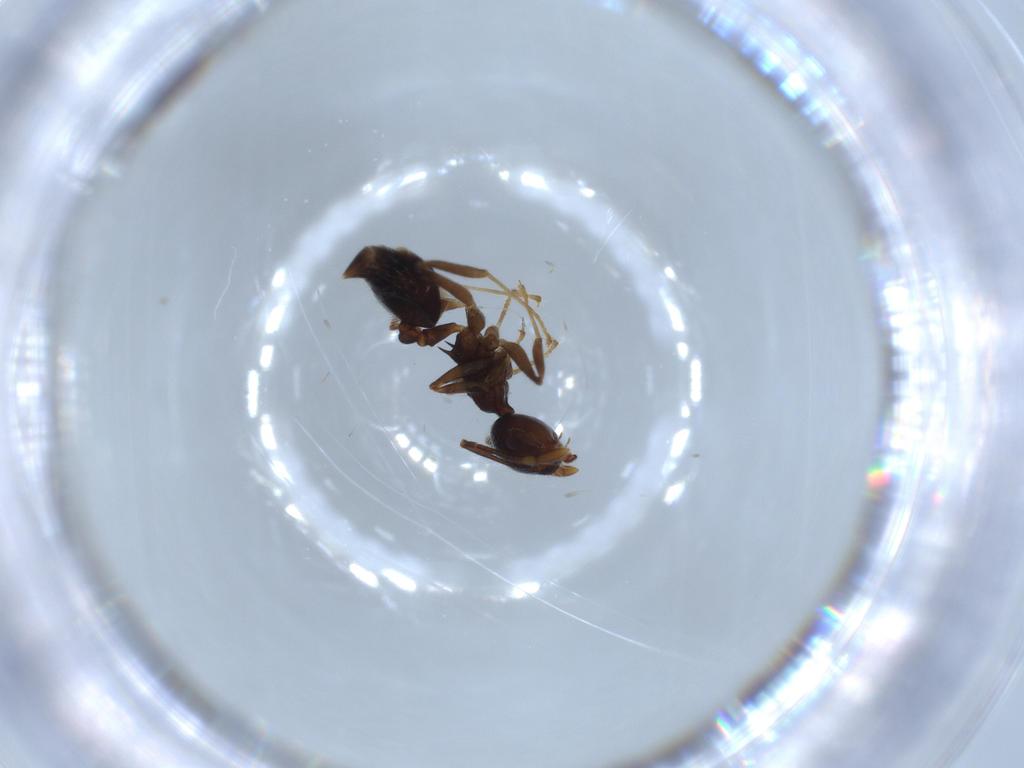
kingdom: Animalia
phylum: Arthropoda
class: Insecta
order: Hymenoptera
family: Formicidae
